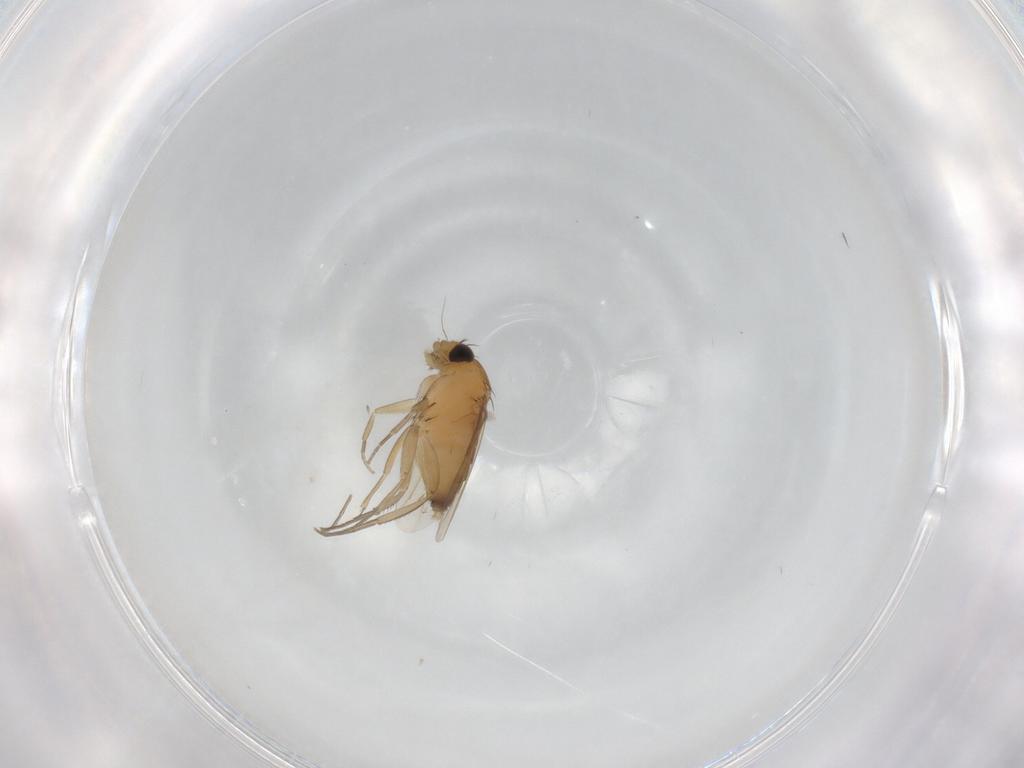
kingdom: Animalia
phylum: Arthropoda
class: Insecta
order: Diptera
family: Phoridae
